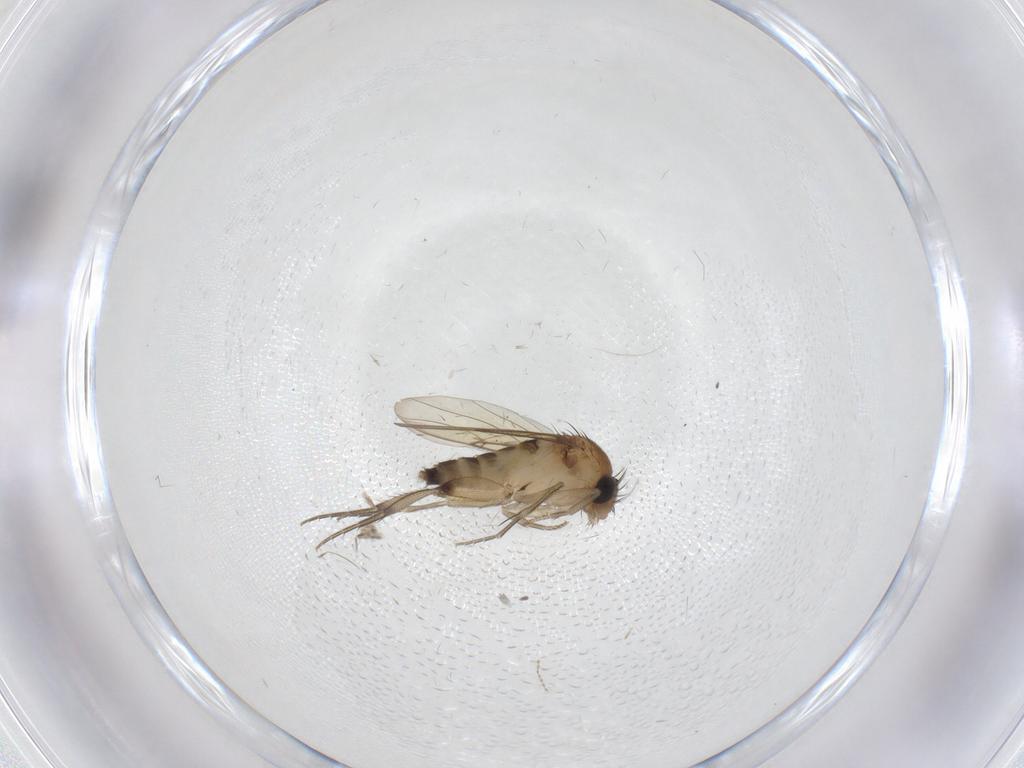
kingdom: Animalia
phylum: Arthropoda
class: Insecta
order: Diptera
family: Phoridae
